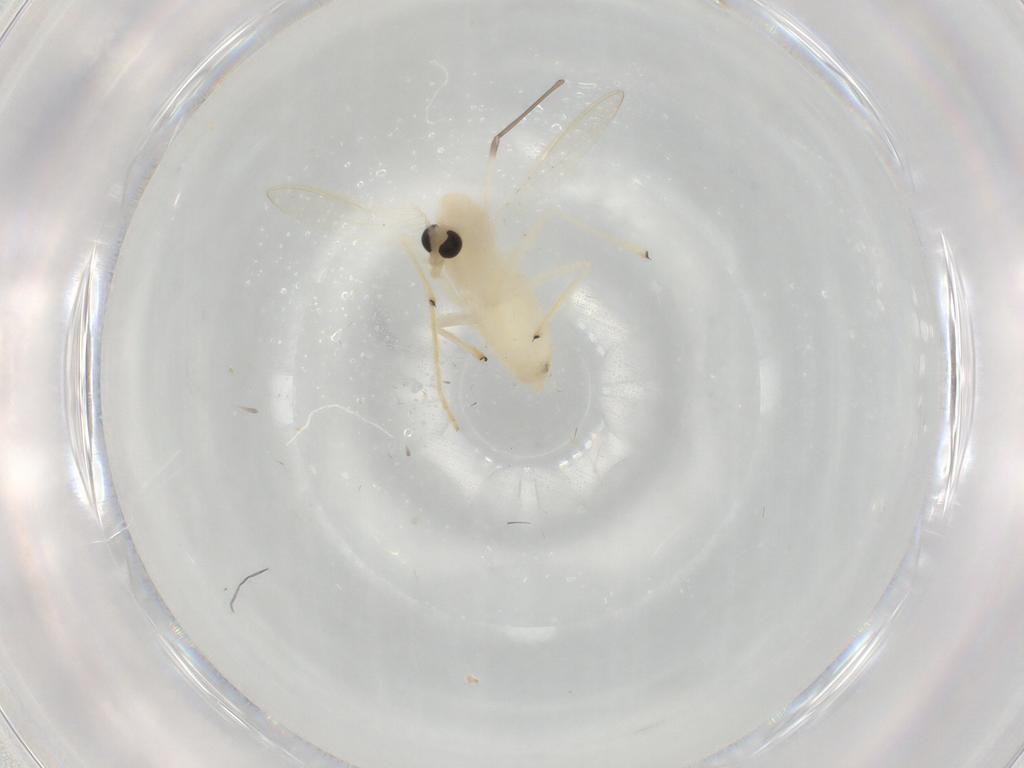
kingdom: Animalia
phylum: Arthropoda
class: Insecta
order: Diptera
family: Chironomidae
